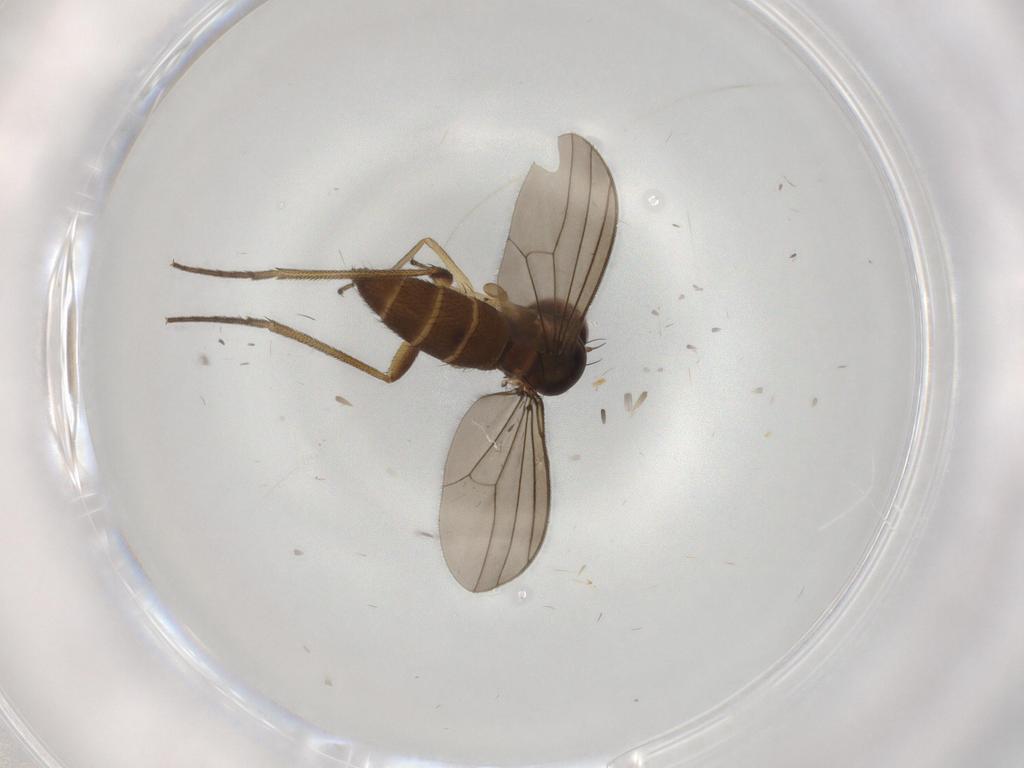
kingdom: Animalia
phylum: Arthropoda
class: Insecta
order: Diptera
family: Dolichopodidae
